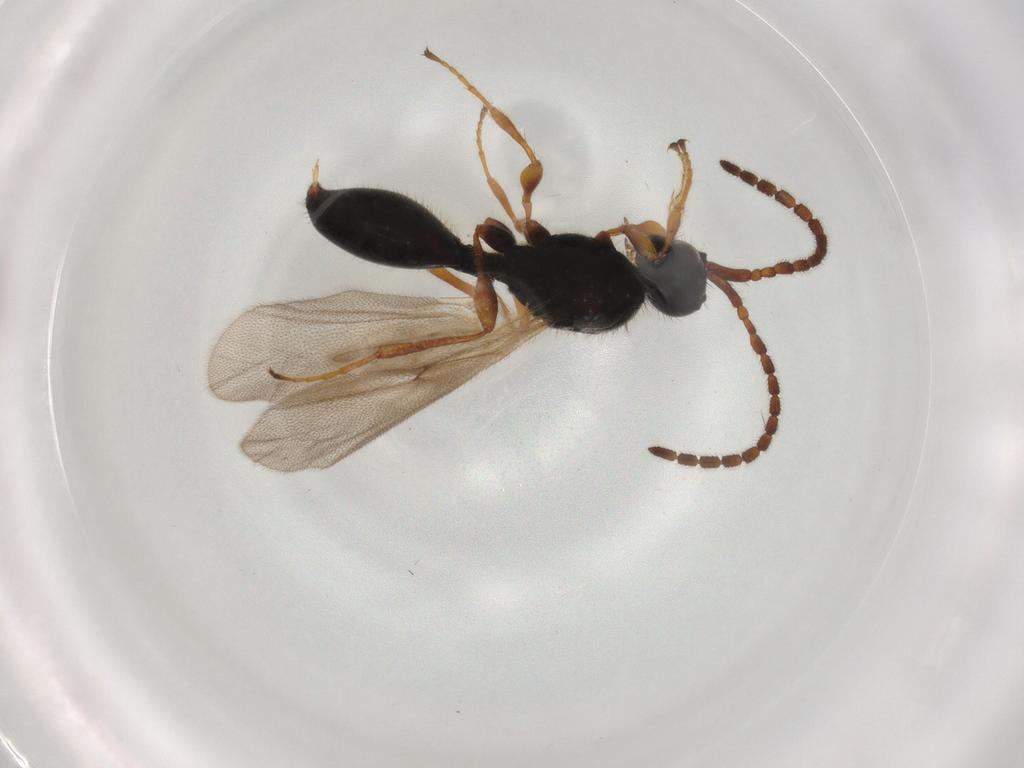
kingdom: Animalia
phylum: Arthropoda
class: Insecta
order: Hymenoptera
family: Diapriidae
